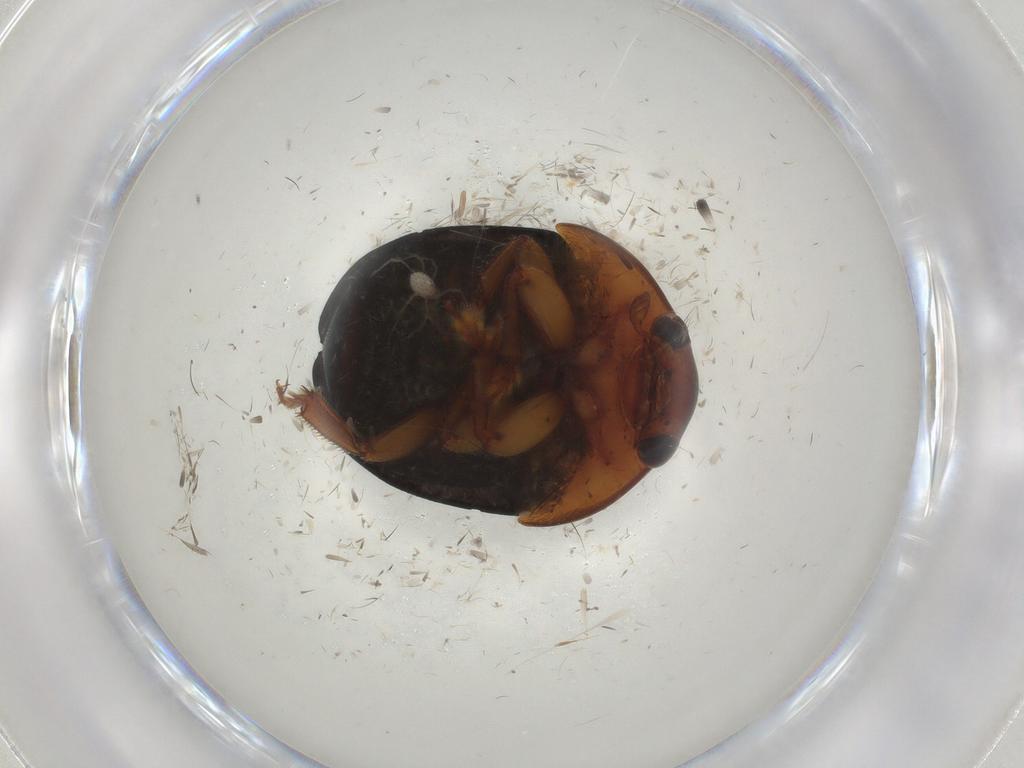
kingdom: Animalia
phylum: Arthropoda
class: Insecta
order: Coleoptera
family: Nitidulidae
